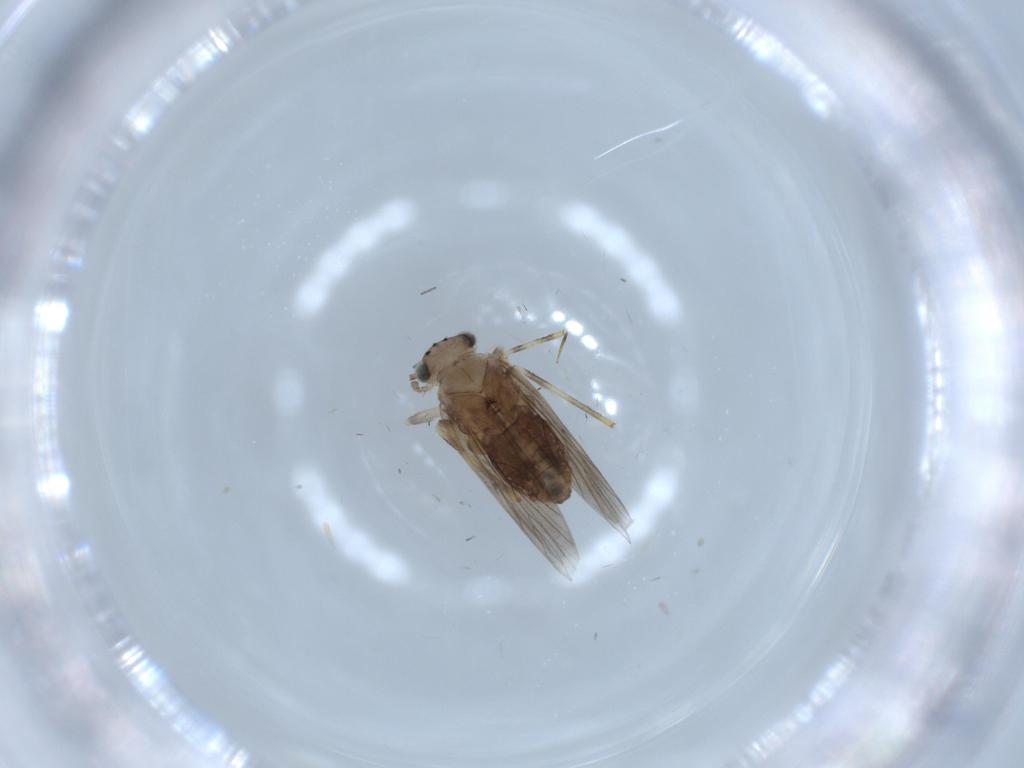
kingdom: Animalia
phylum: Arthropoda
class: Insecta
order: Psocodea
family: Lepidopsocidae
